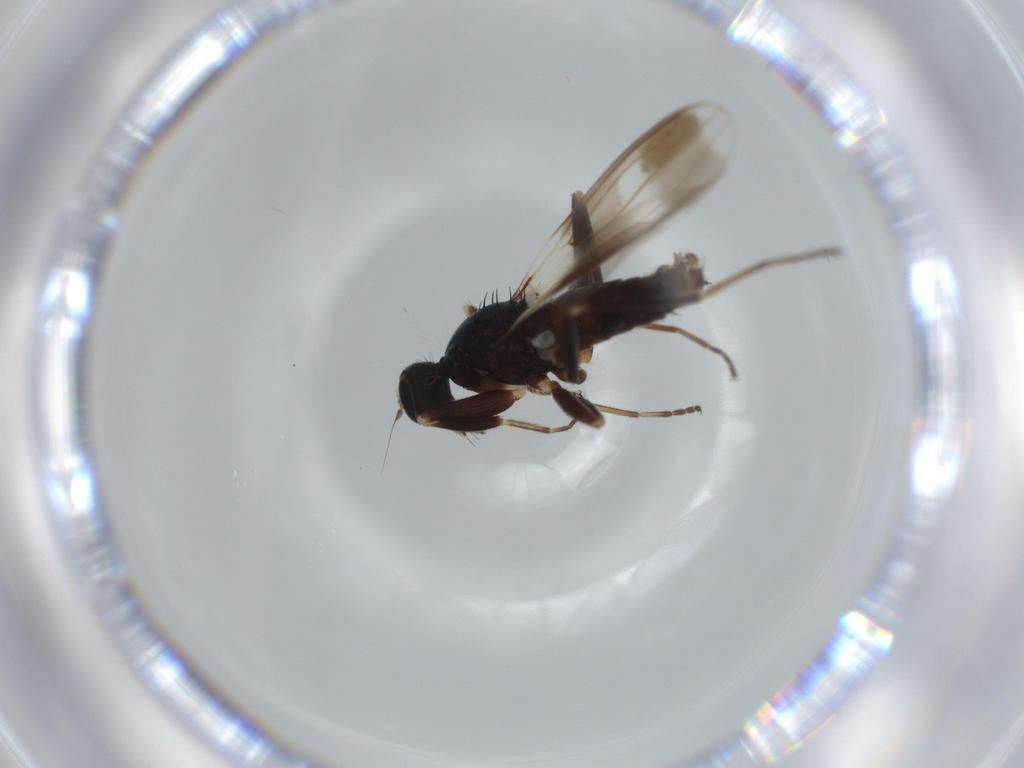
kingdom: Animalia
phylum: Arthropoda
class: Insecta
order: Diptera
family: Hybotidae
